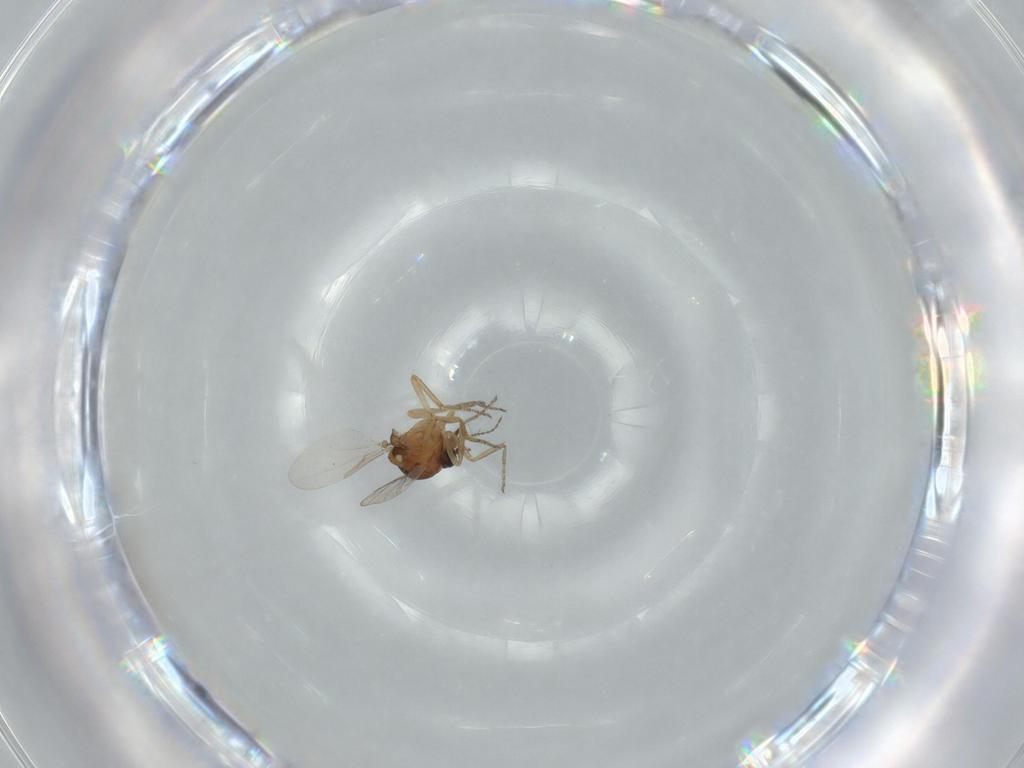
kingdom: Animalia
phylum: Arthropoda
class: Insecta
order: Diptera
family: Ceratopogonidae
